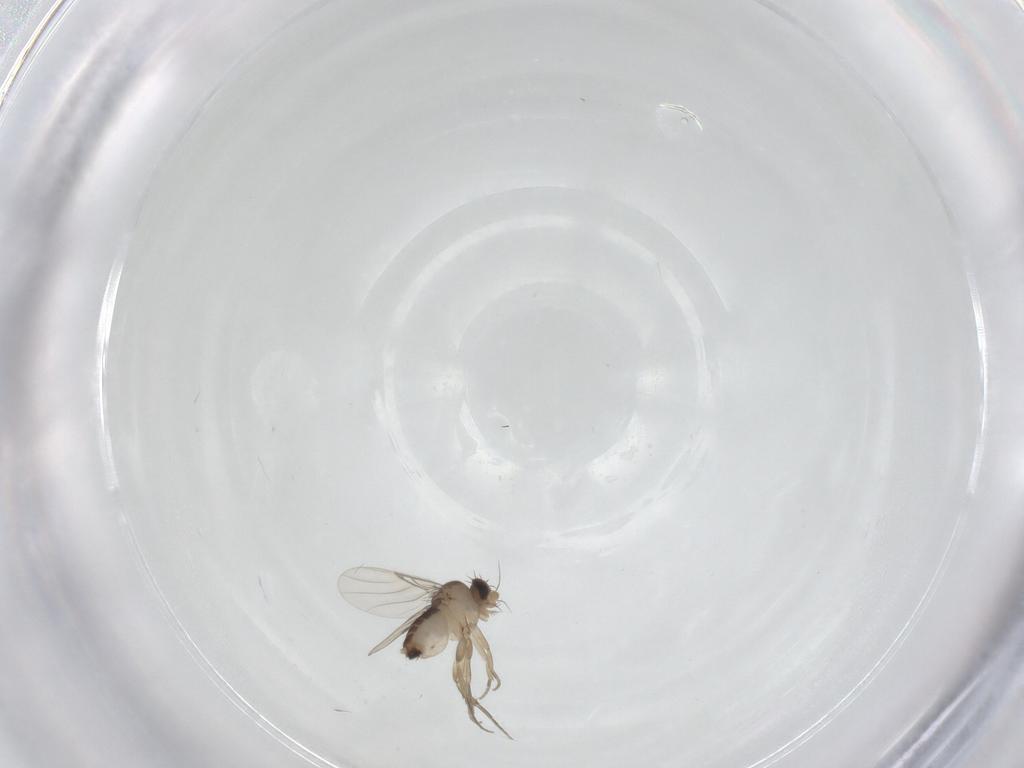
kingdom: Animalia
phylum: Arthropoda
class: Insecta
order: Diptera
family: Phoridae
